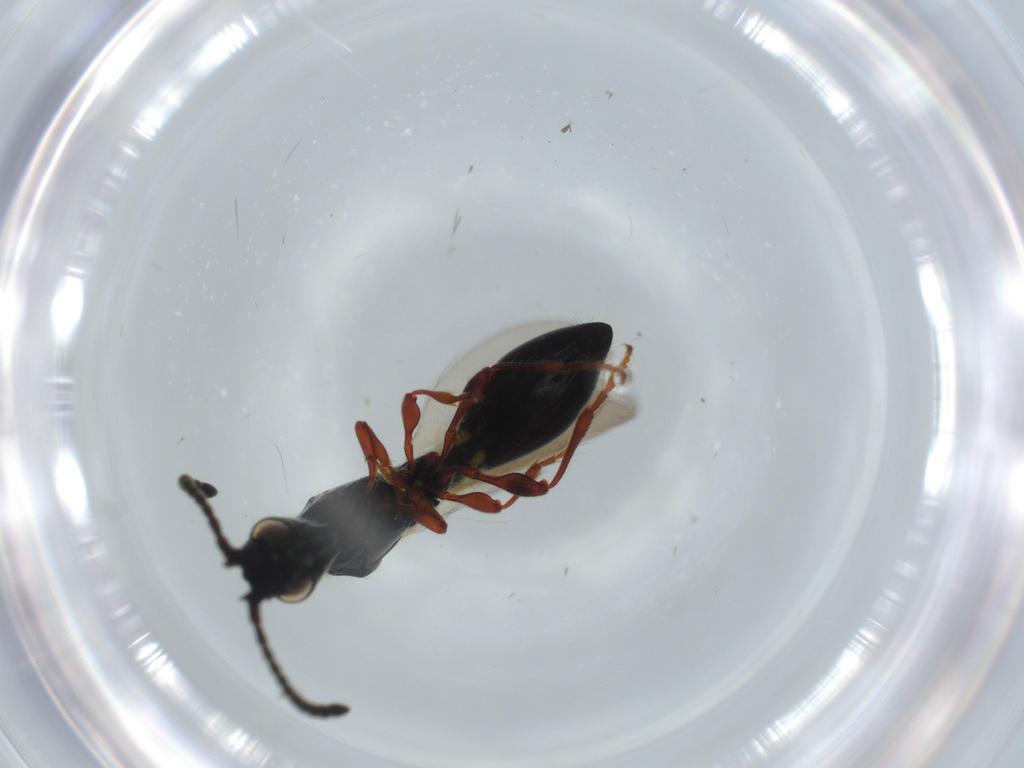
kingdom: Animalia
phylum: Arthropoda
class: Insecta
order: Hymenoptera
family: Diapriidae
